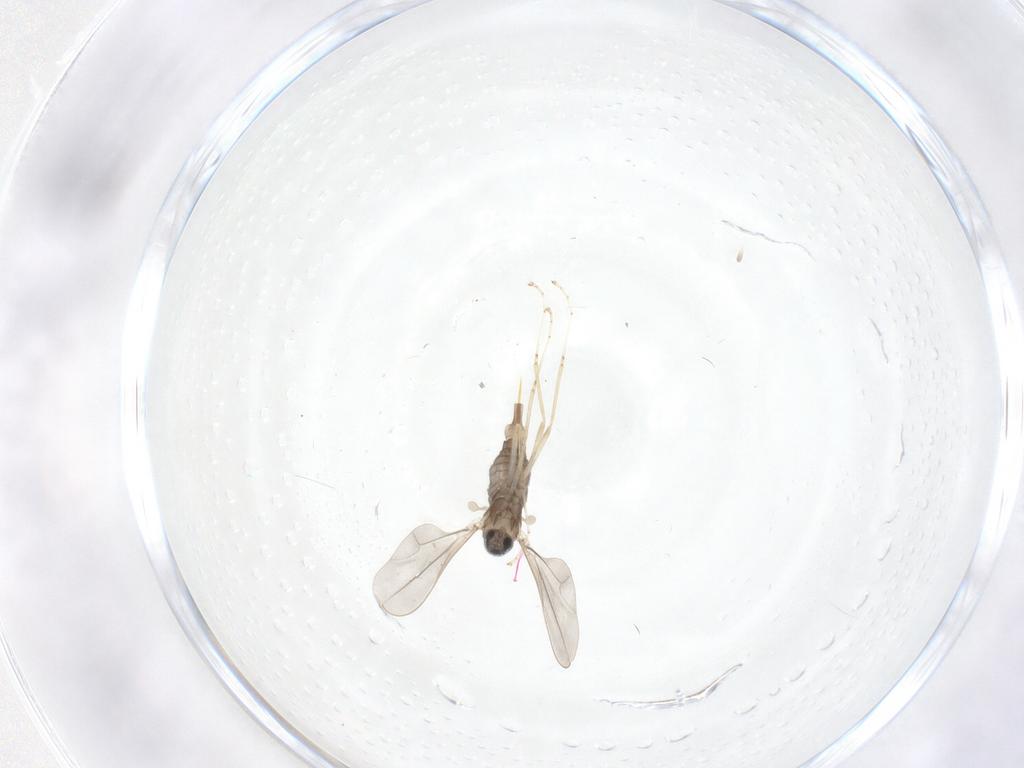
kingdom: Animalia
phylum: Arthropoda
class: Insecta
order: Diptera
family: Cecidomyiidae
